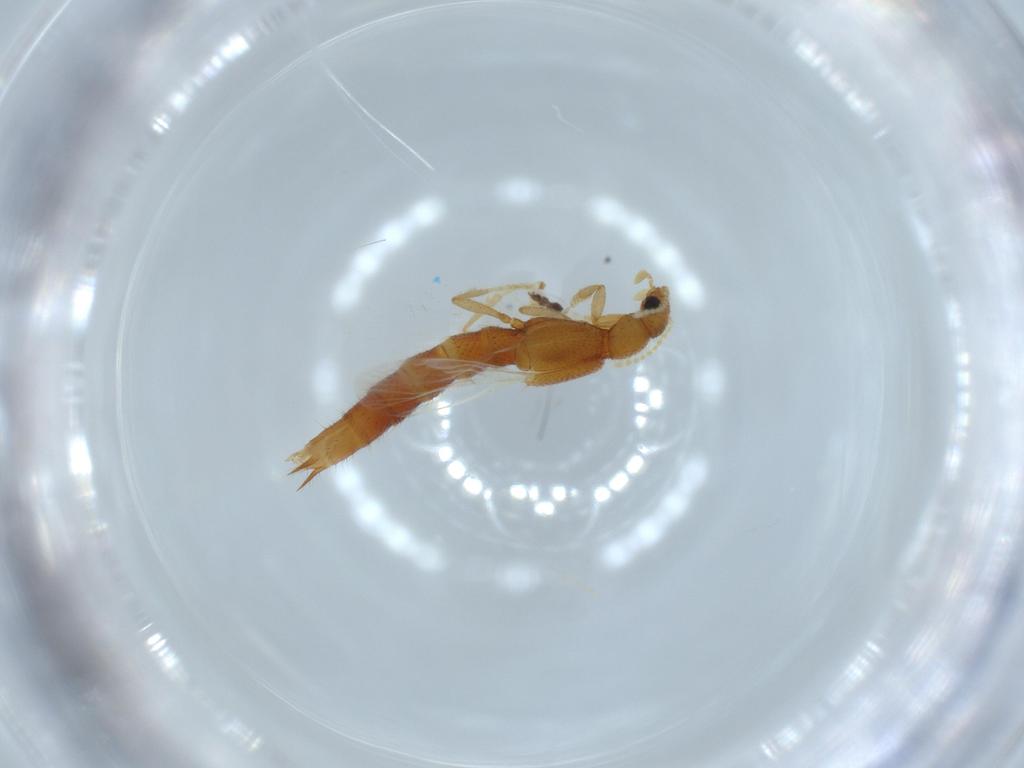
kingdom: Animalia
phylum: Arthropoda
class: Insecta
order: Coleoptera
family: Staphylinidae
